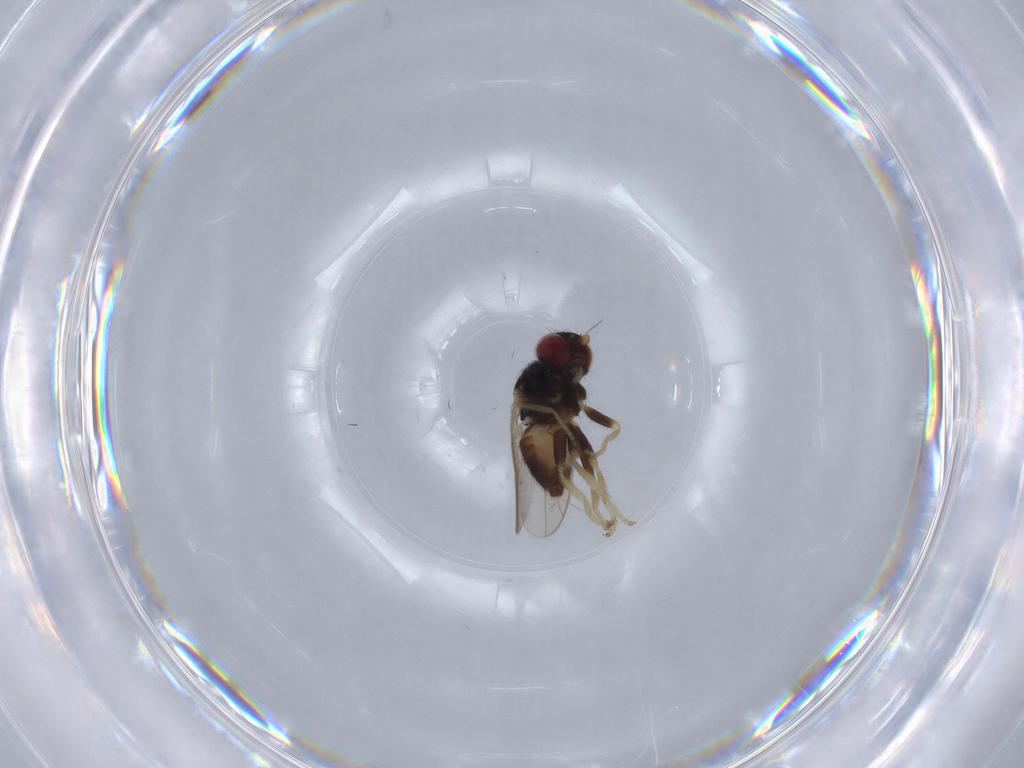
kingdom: Animalia
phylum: Arthropoda
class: Insecta
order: Diptera
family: Chloropidae
